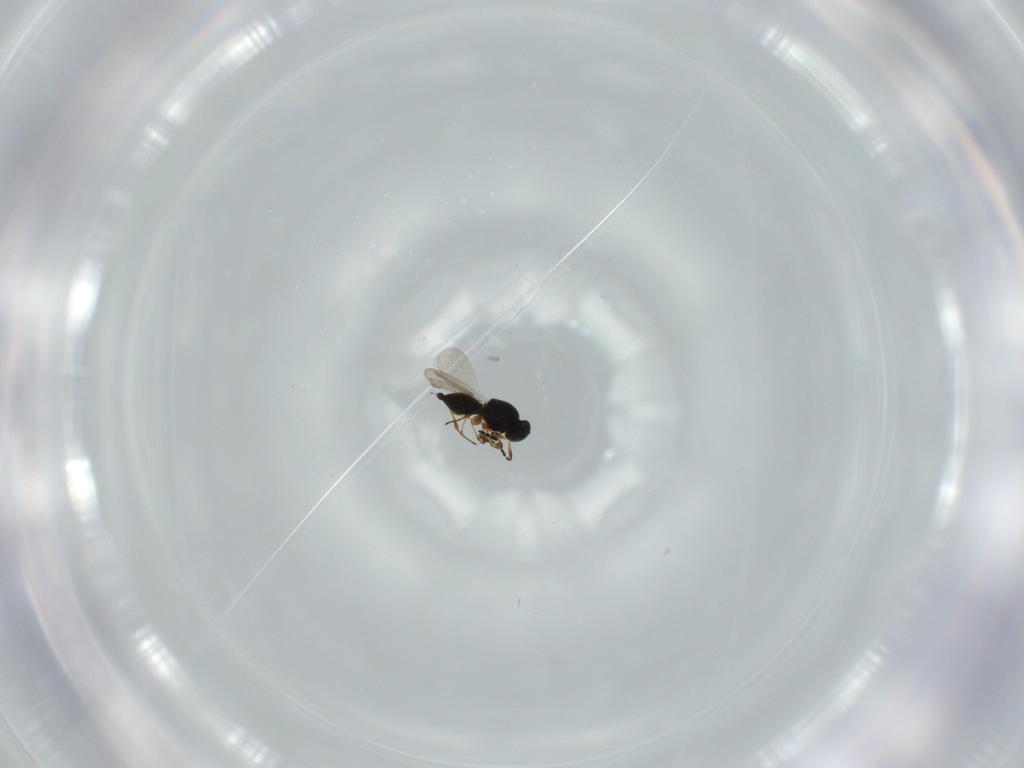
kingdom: Animalia
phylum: Arthropoda
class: Insecta
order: Hymenoptera
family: Platygastridae
